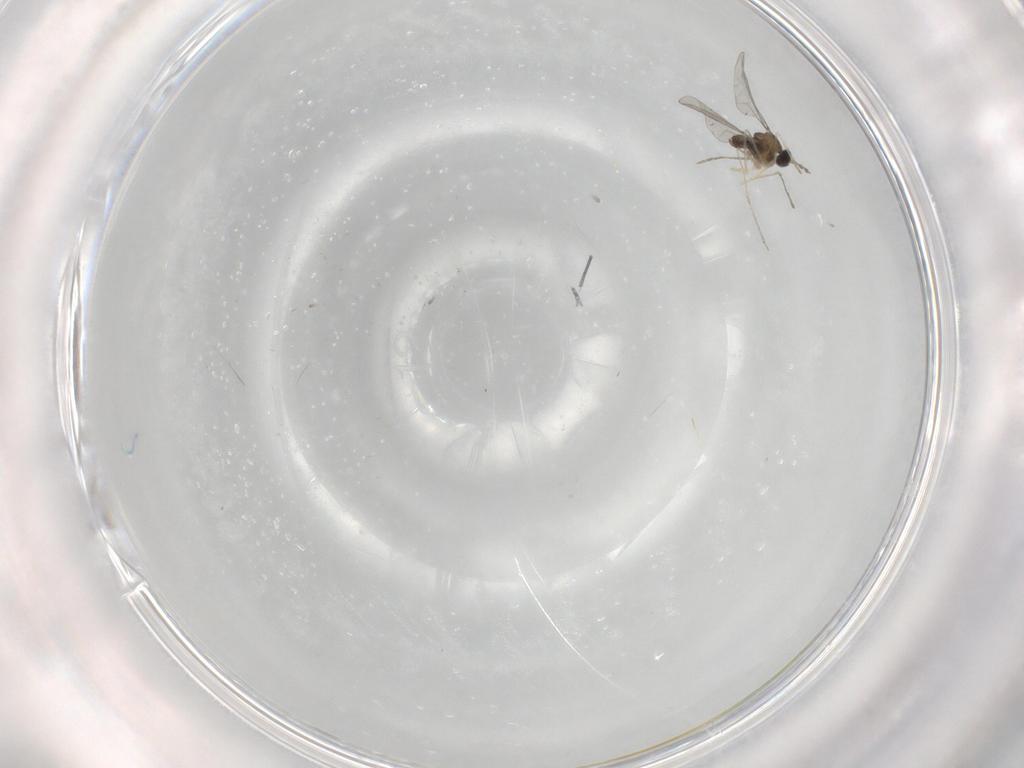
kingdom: Animalia
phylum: Arthropoda
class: Insecta
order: Diptera
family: Cecidomyiidae
